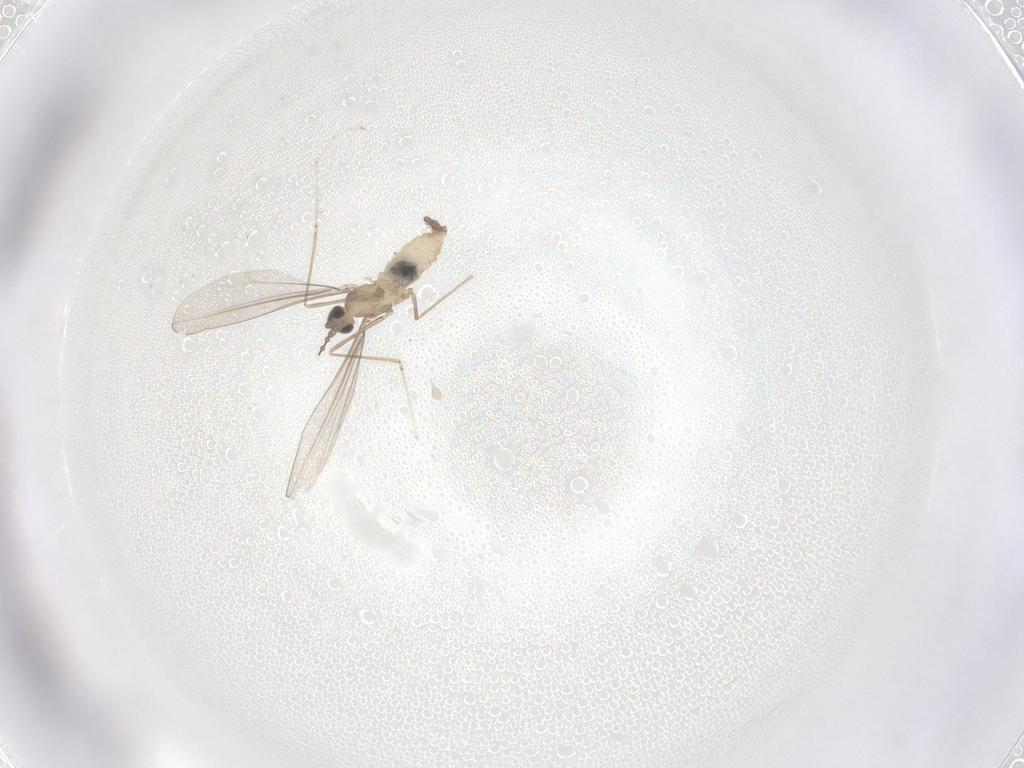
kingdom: Animalia
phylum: Arthropoda
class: Insecta
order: Diptera
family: Cecidomyiidae
